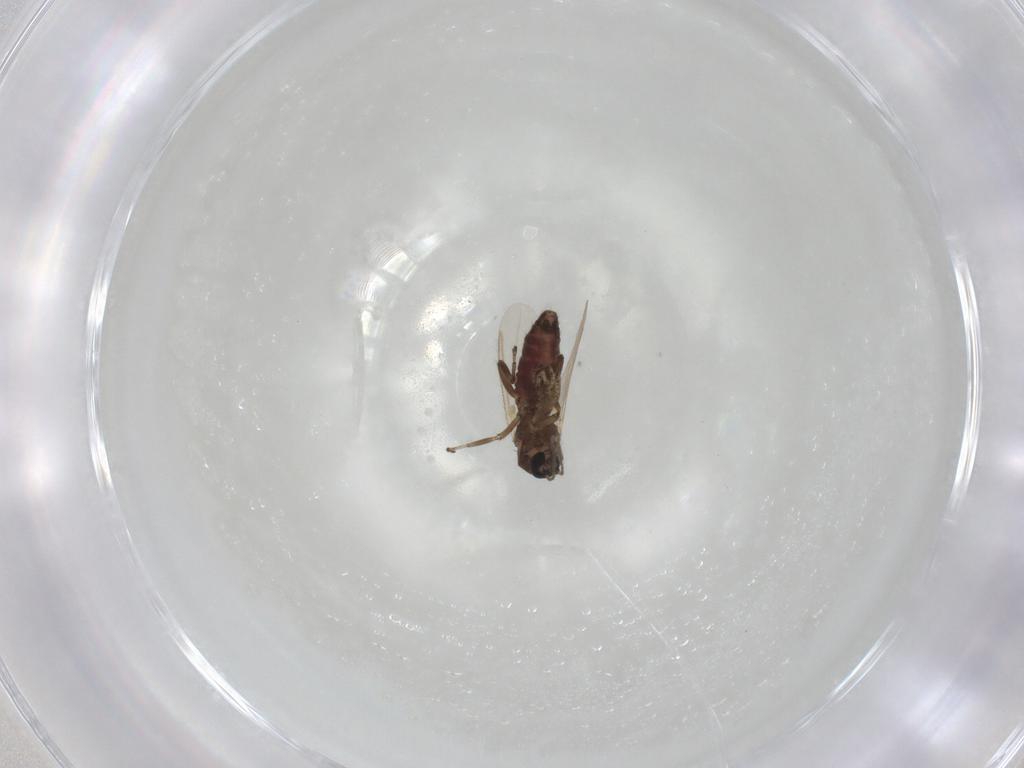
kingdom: Animalia
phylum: Arthropoda
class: Insecta
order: Diptera
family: Ceratopogonidae
